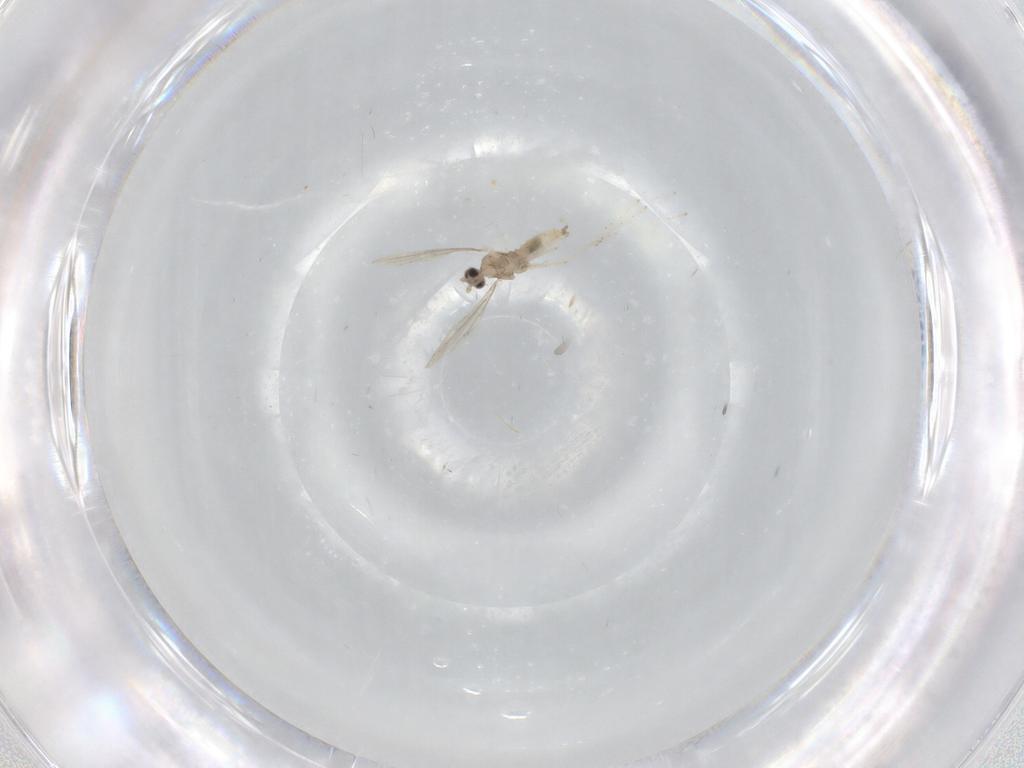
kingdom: Animalia
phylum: Arthropoda
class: Insecta
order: Diptera
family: Cecidomyiidae
